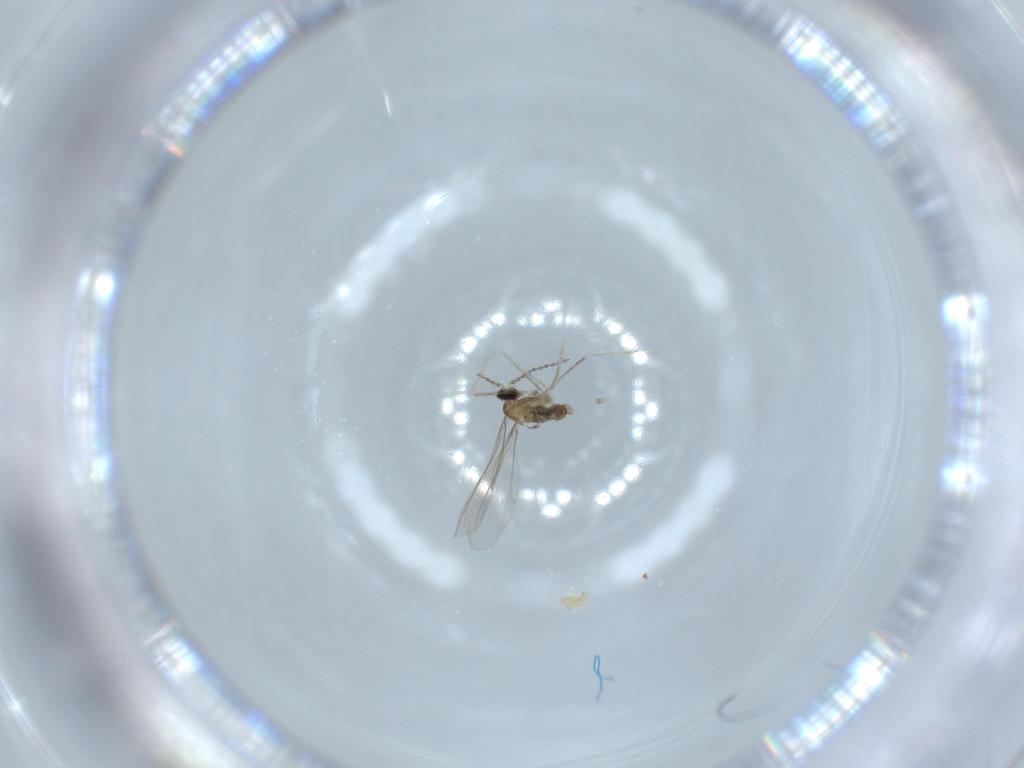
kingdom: Animalia
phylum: Arthropoda
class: Insecta
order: Diptera
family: Cecidomyiidae
